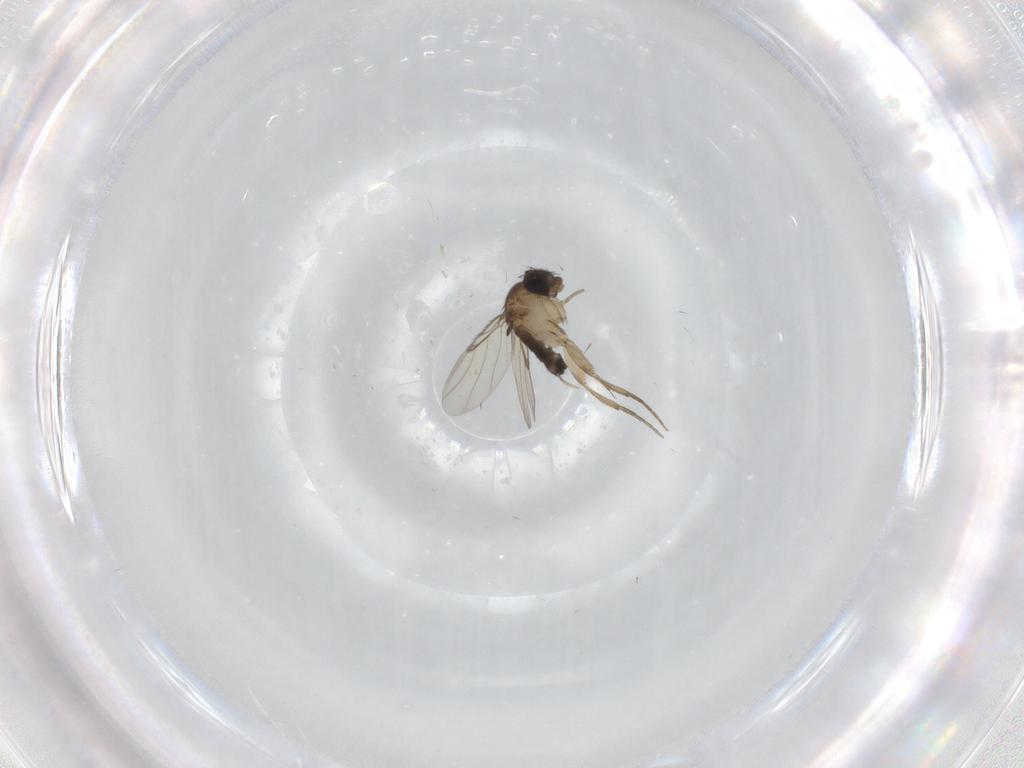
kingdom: Animalia
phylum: Arthropoda
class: Insecta
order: Diptera
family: Phoridae
